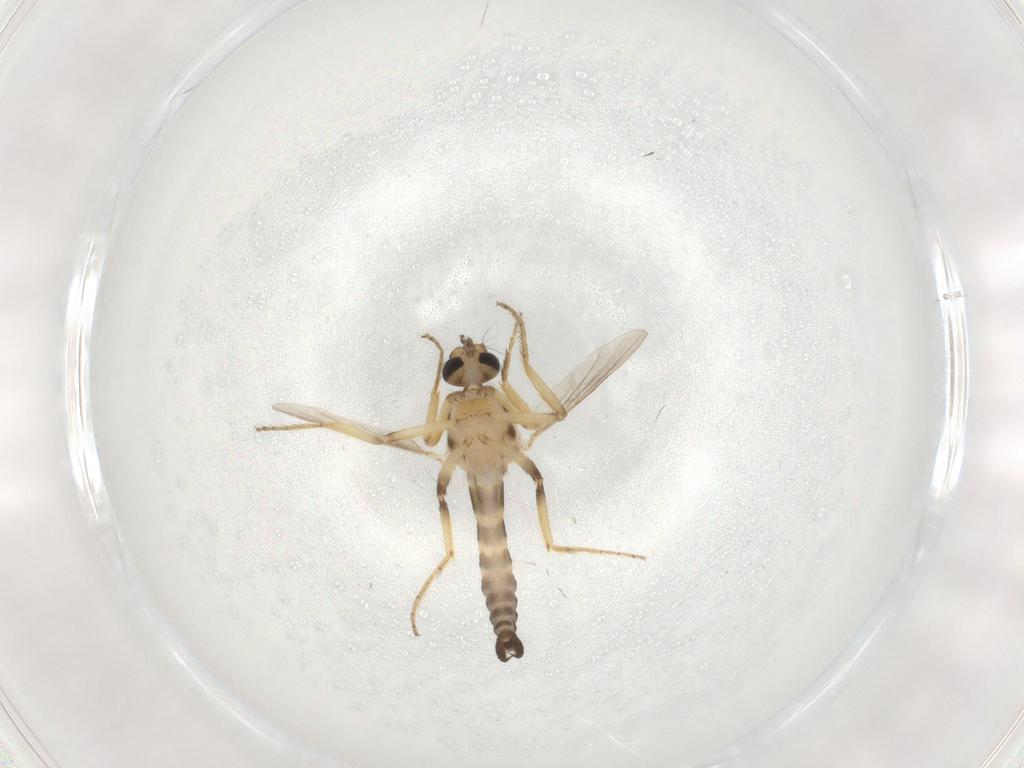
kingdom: Animalia
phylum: Arthropoda
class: Insecta
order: Diptera
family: Ceratopogonidae
